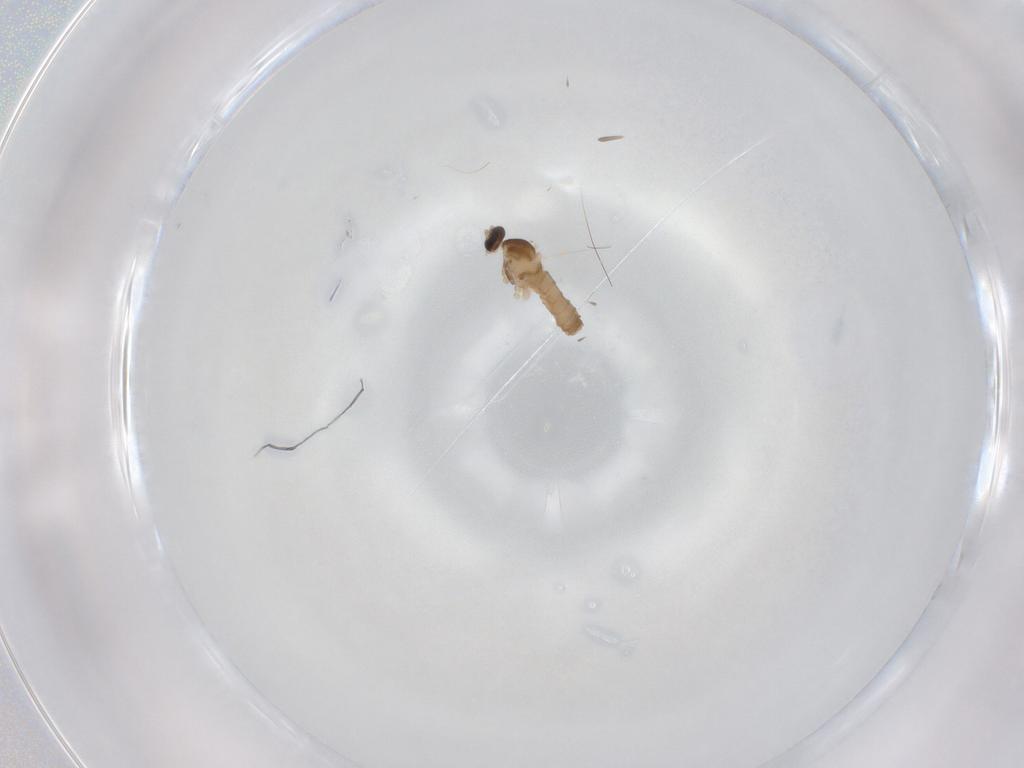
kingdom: Animalia
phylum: Arthropoda
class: Insecta
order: Diptera
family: Cecidomyiidae
